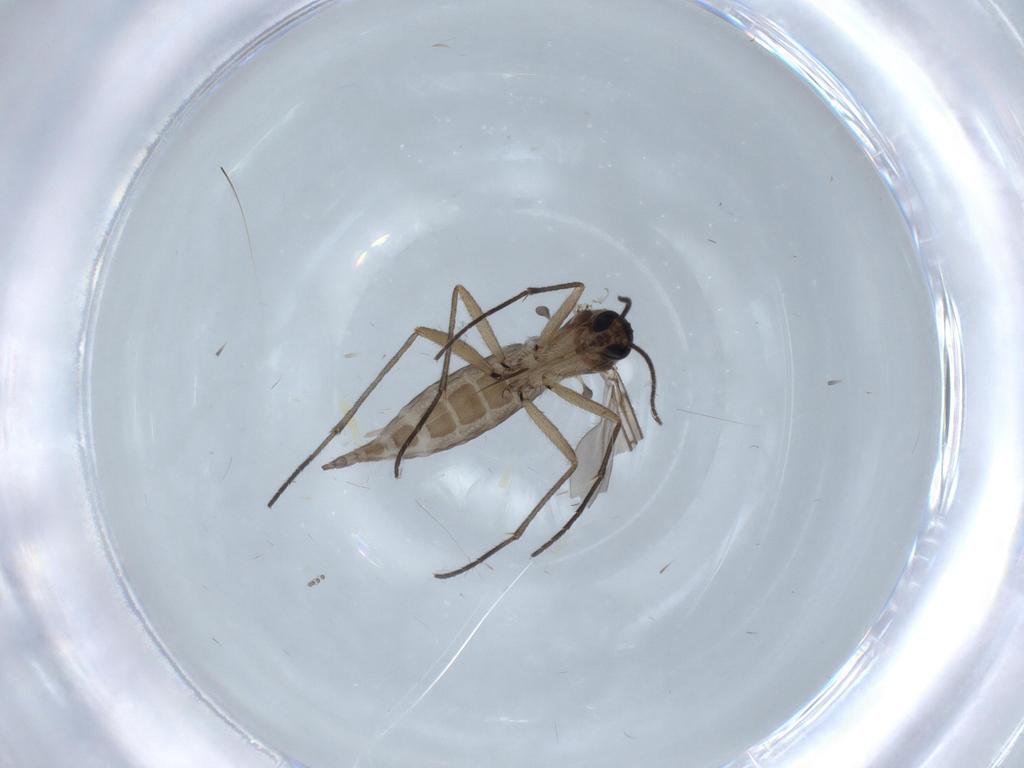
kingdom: Animalia
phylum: Arthropoda
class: Insecta
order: Diptera
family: Sciaridae
